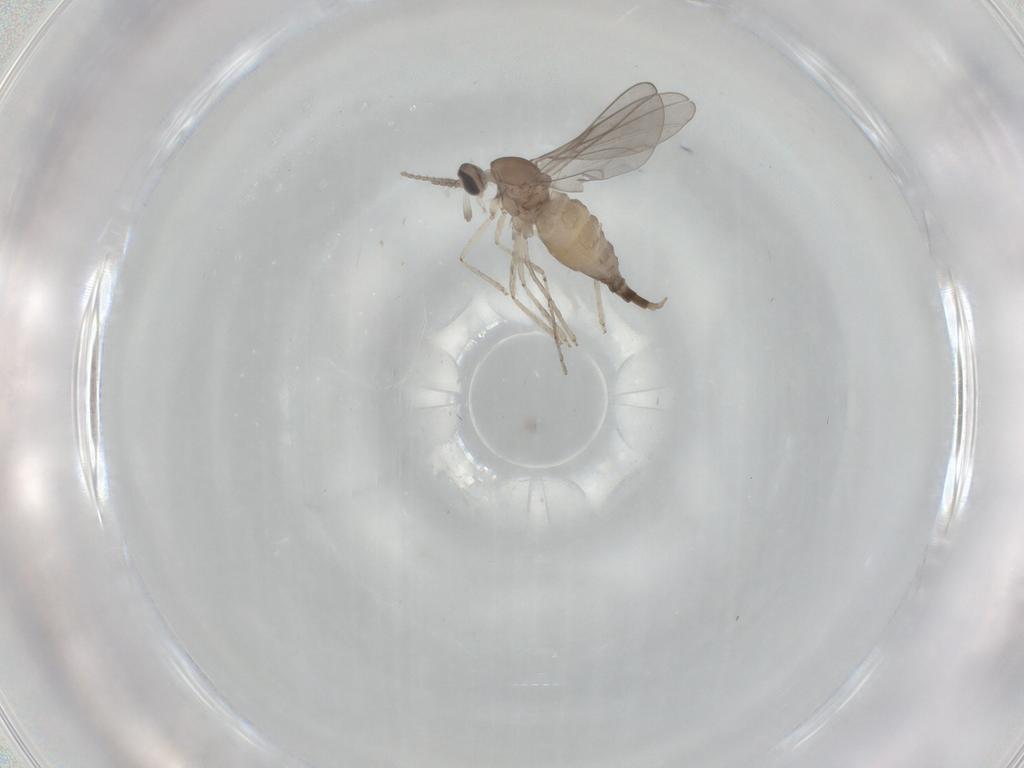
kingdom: Animalia
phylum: Arthropoda
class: Insecta
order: Diptera
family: Cecidomyiidae
